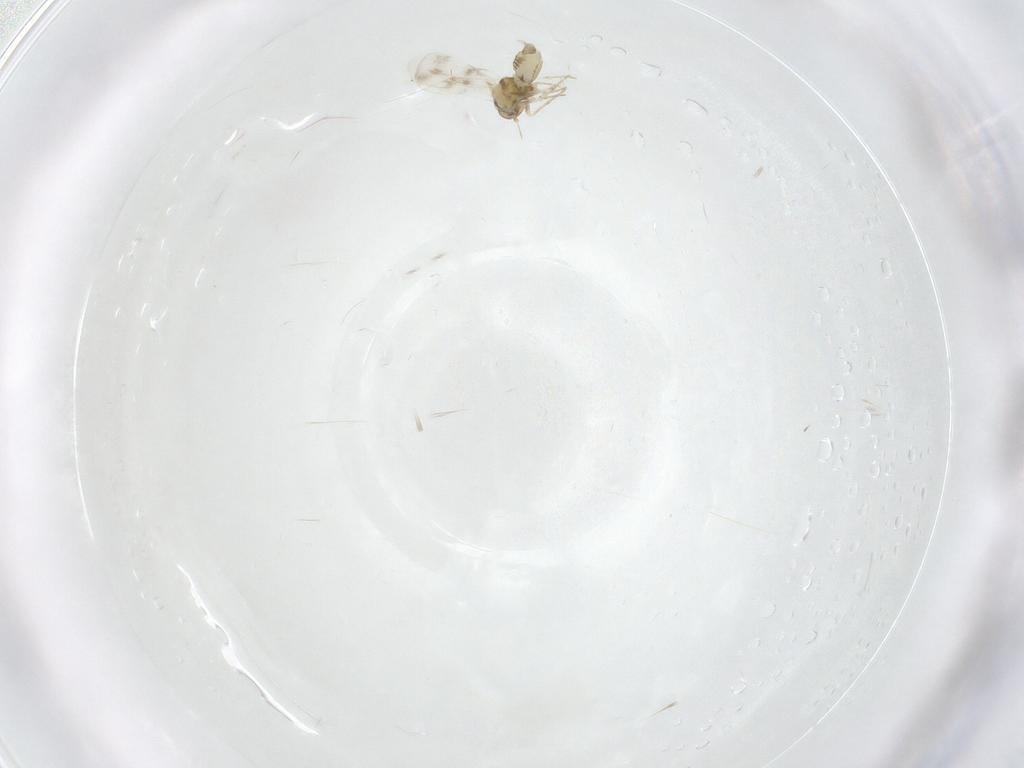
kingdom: Animalia
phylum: Arthropoda
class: Insecta
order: Hemiptera
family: Aleyrodidae
